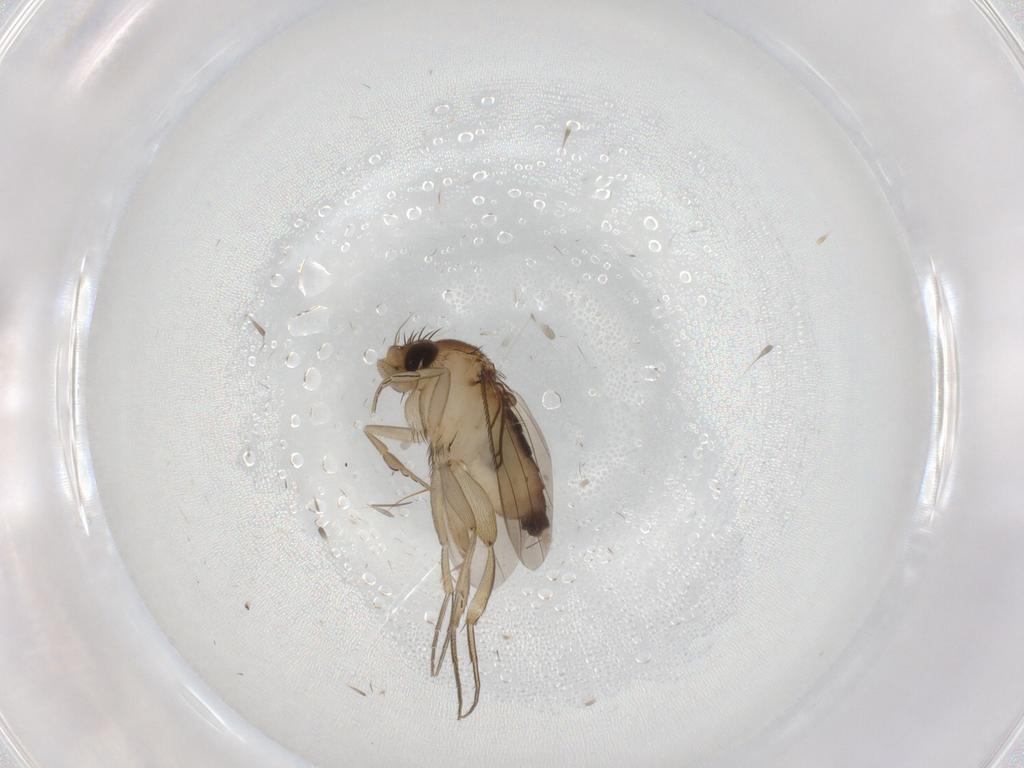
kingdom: Animalia
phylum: Arthropoda
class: Insecta
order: Diptera
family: Phoridae
